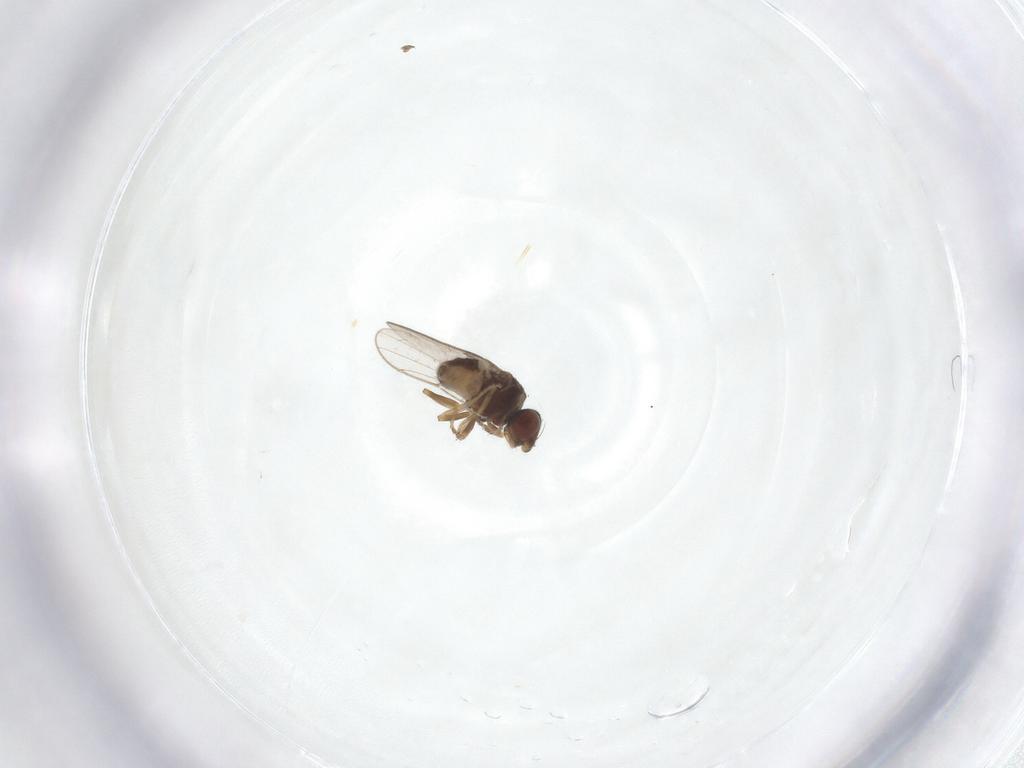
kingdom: Animalia
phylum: Arthropoda
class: Insecta
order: Diptera
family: Chloropidae
